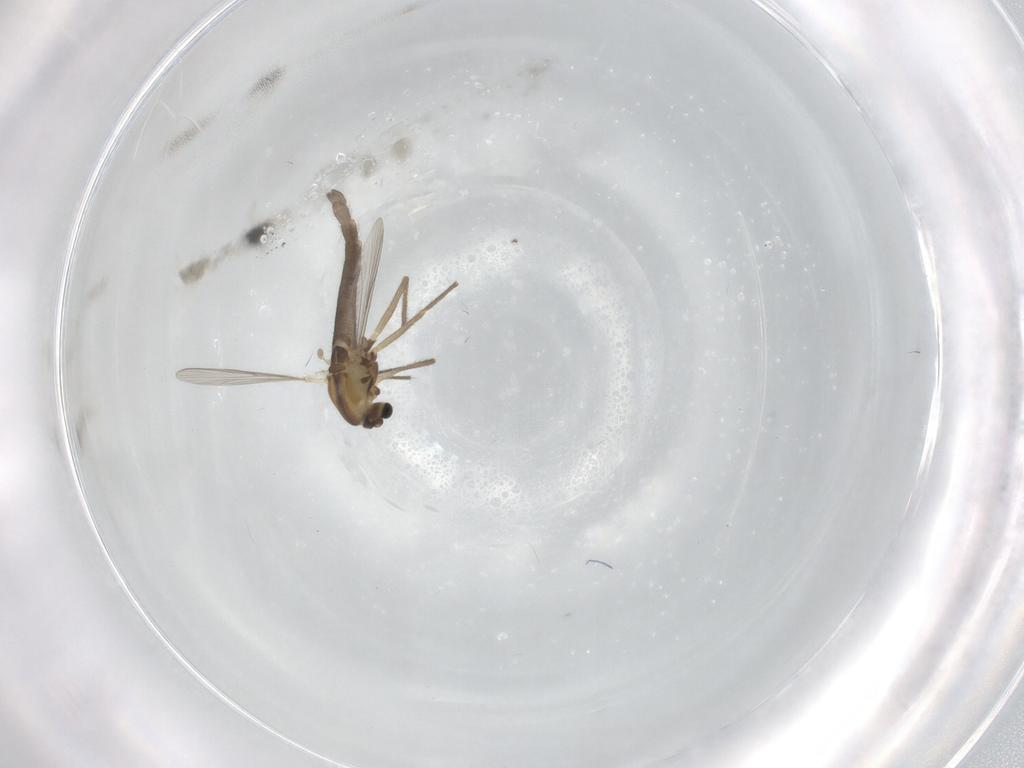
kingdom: Animalia
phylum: Arthropoda
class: Insecta
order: Diptera
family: Chironomidae
